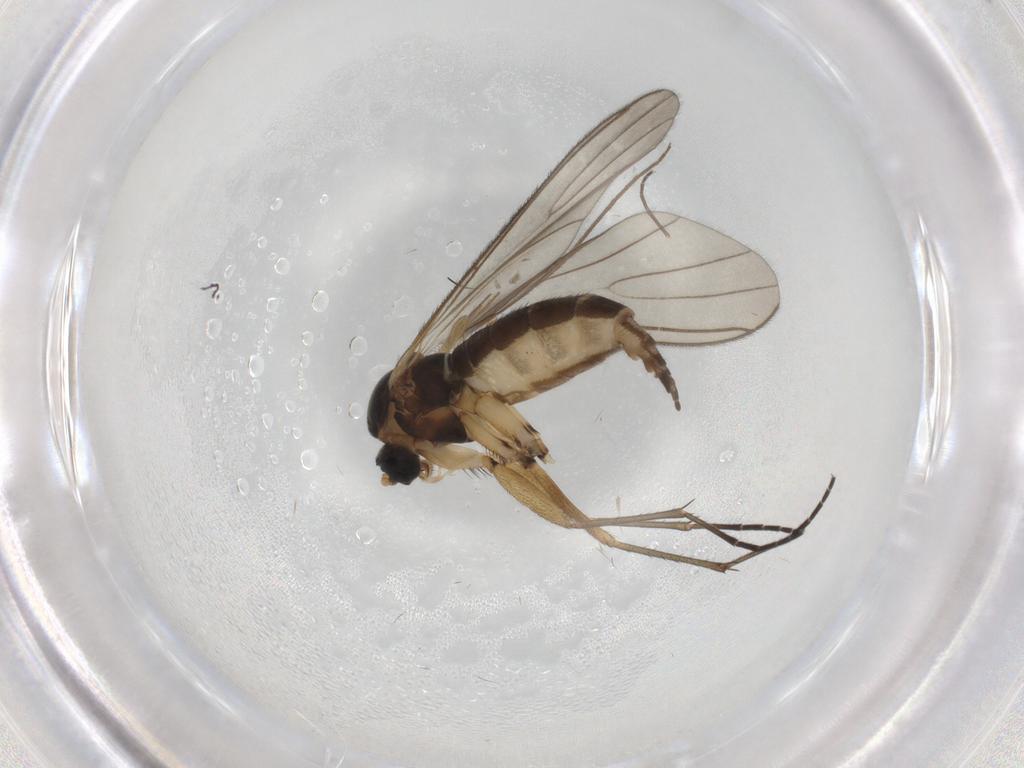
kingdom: Animalia
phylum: Arthropoda
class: Insecta
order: Diptera
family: Sciaridae
